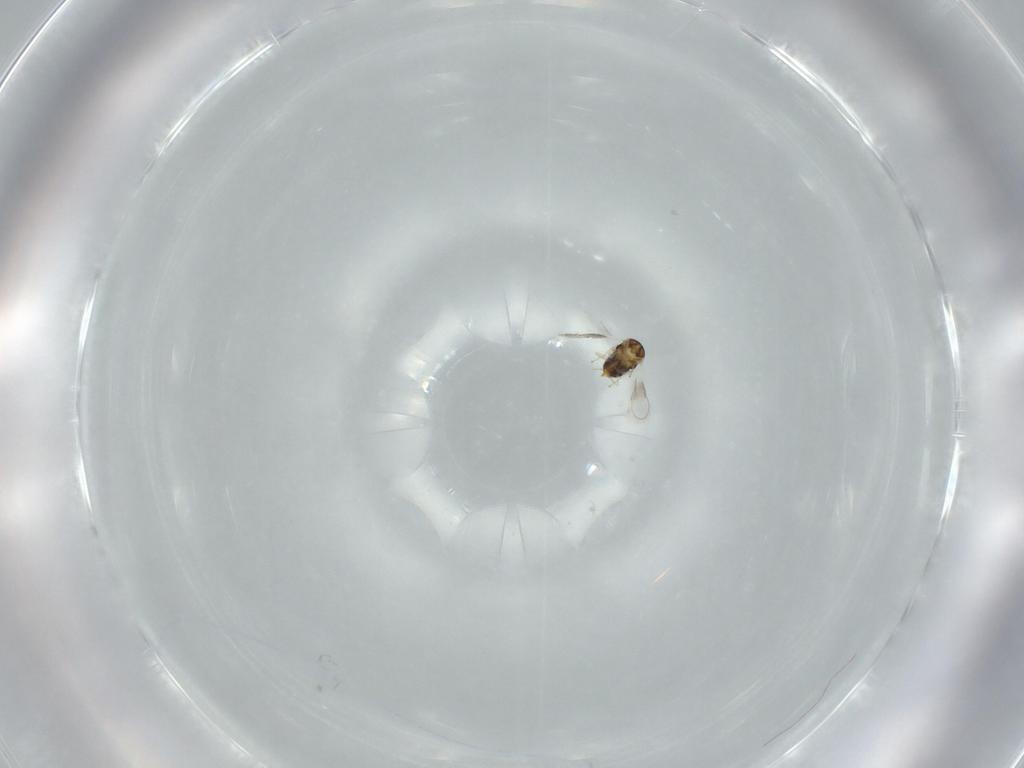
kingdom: Animalia
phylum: Arthropoda
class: Insecta
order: Hymenoptera
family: Aphelinidae
